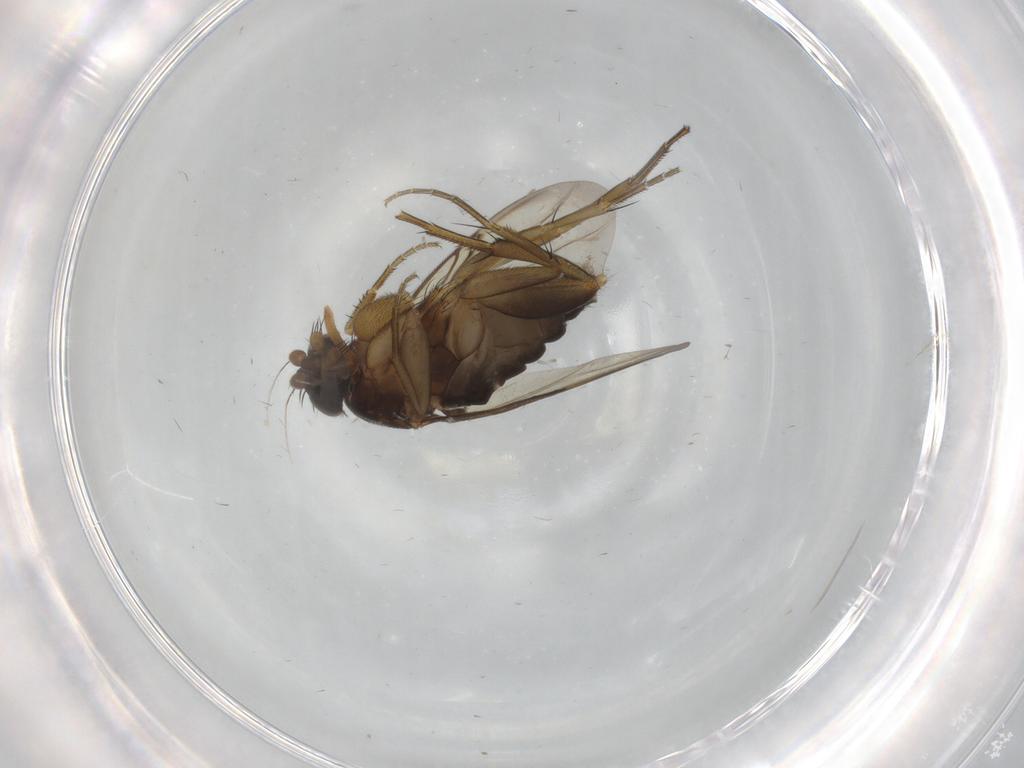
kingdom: Animalia
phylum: Arthropoda
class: Insecta
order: Diptera
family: Phoridae
